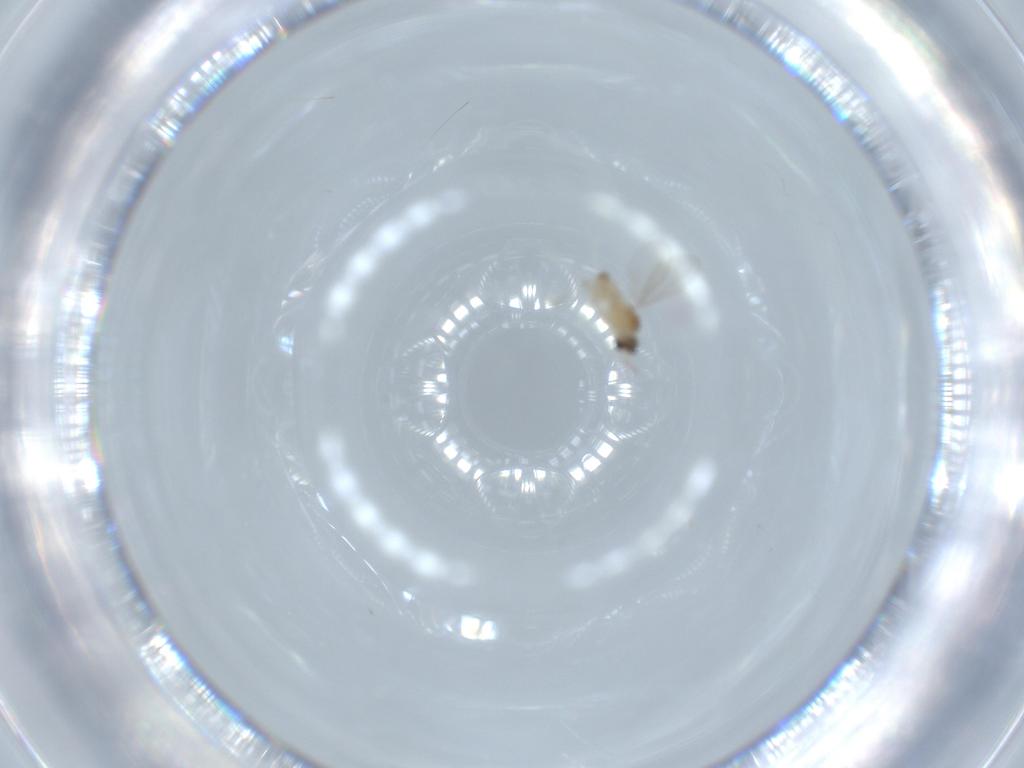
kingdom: Animalia
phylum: Arthropoda
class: Insecta
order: Diptera
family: Cecidomyiidae
